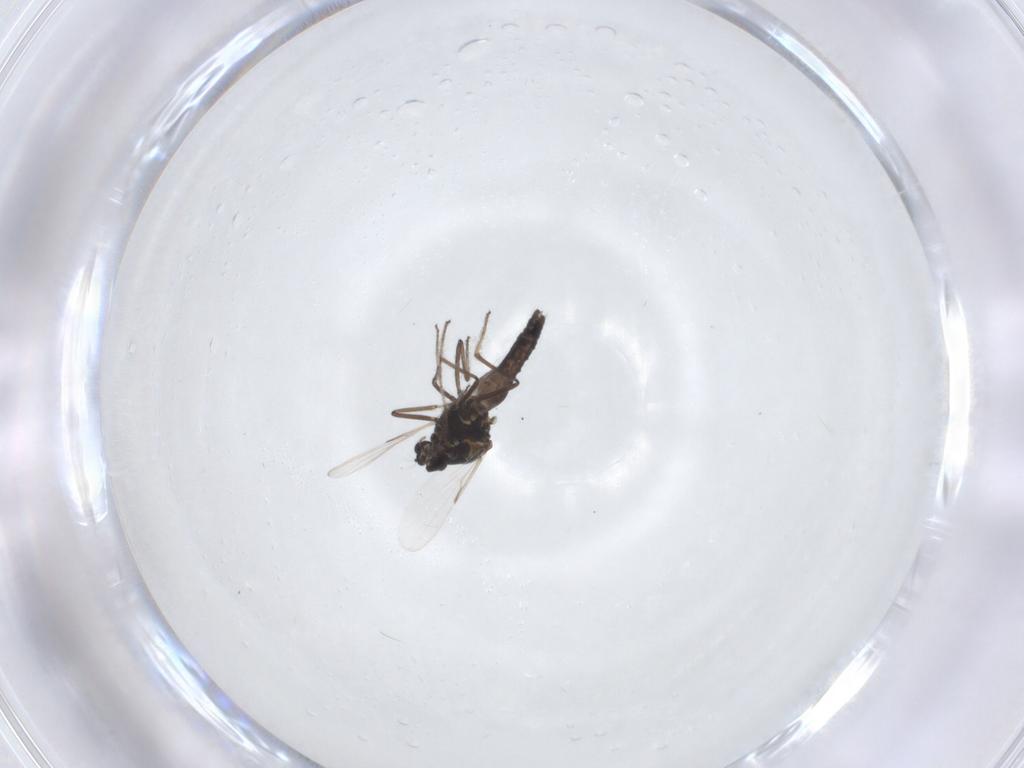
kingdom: Animalia
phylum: Arthropoda
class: Insecta
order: Diptera
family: Ceratopogonidae
